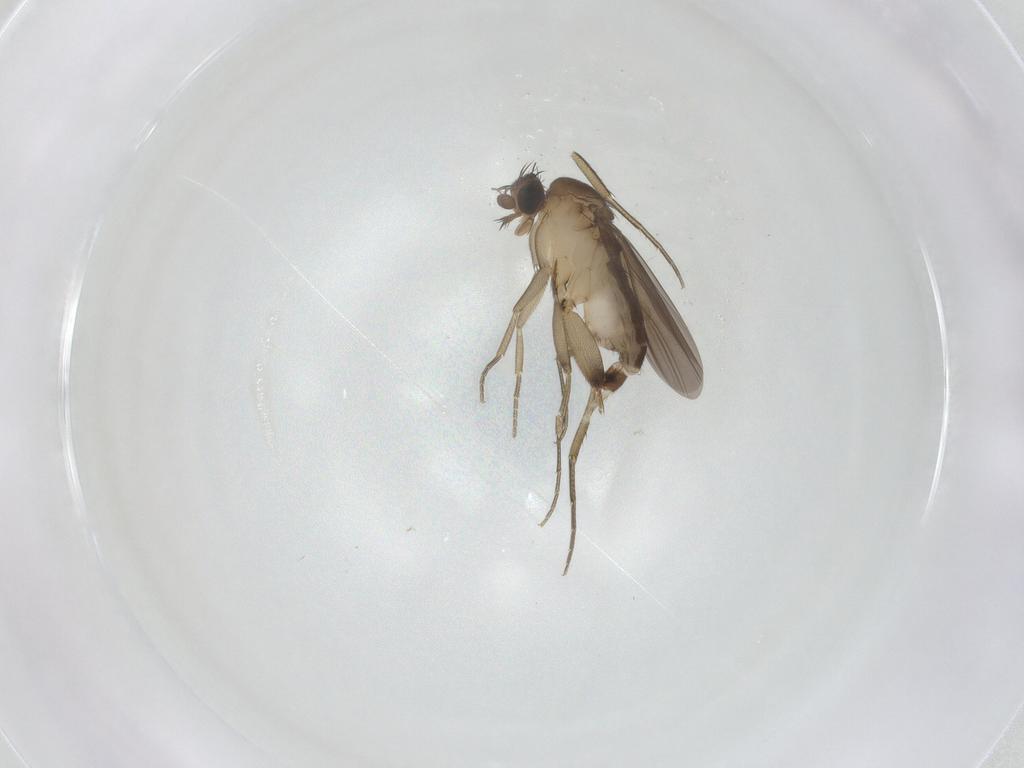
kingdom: Animalia
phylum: Arthropoda
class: Insecta
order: Diptera
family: Phoridae
